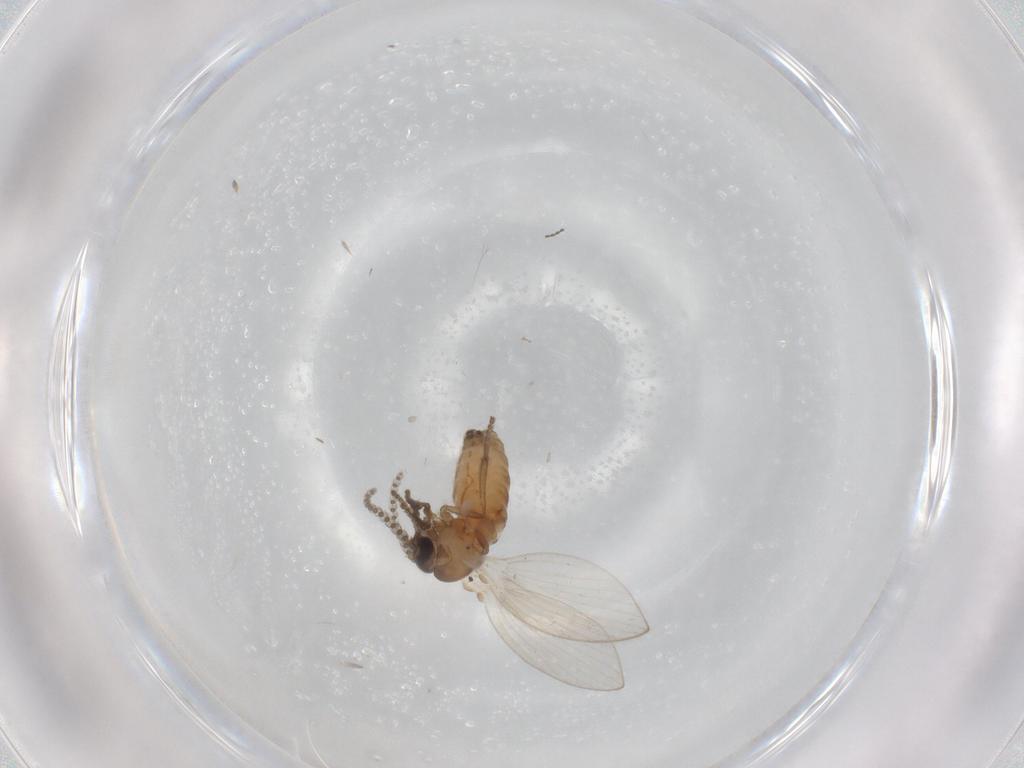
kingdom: Animalia
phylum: Arthropoda
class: Insecta
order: Diptera
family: Psychodidae
